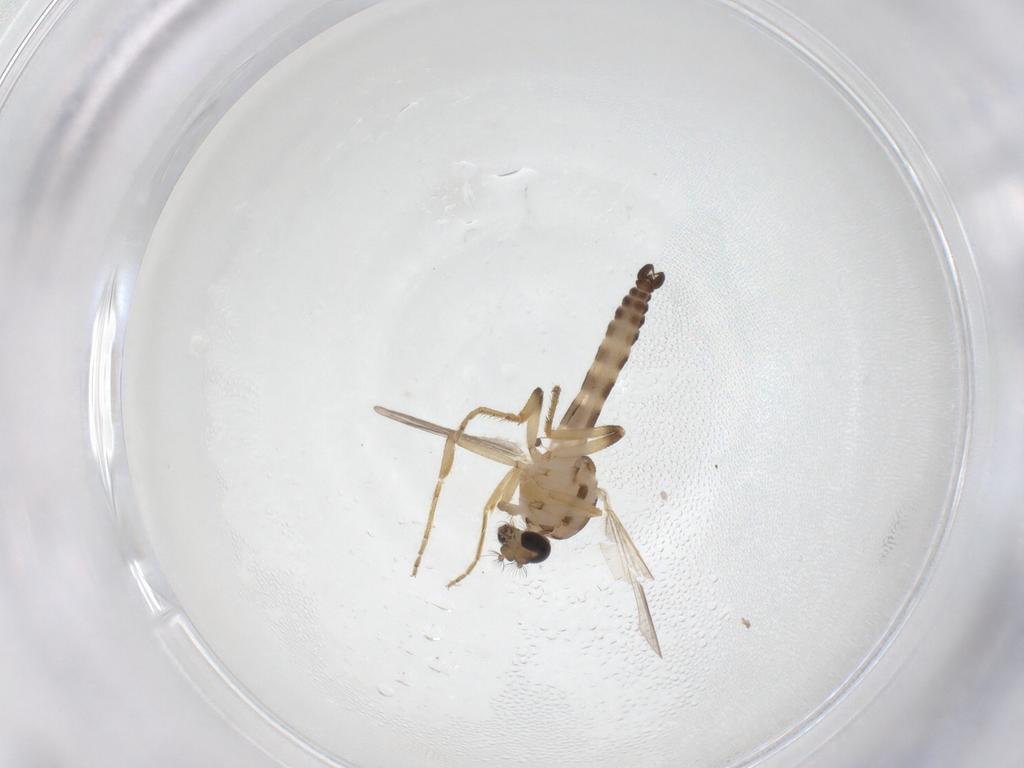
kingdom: Animalia
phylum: Arthropoda
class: Insecta
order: Diptera
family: Ceratopogonidae
